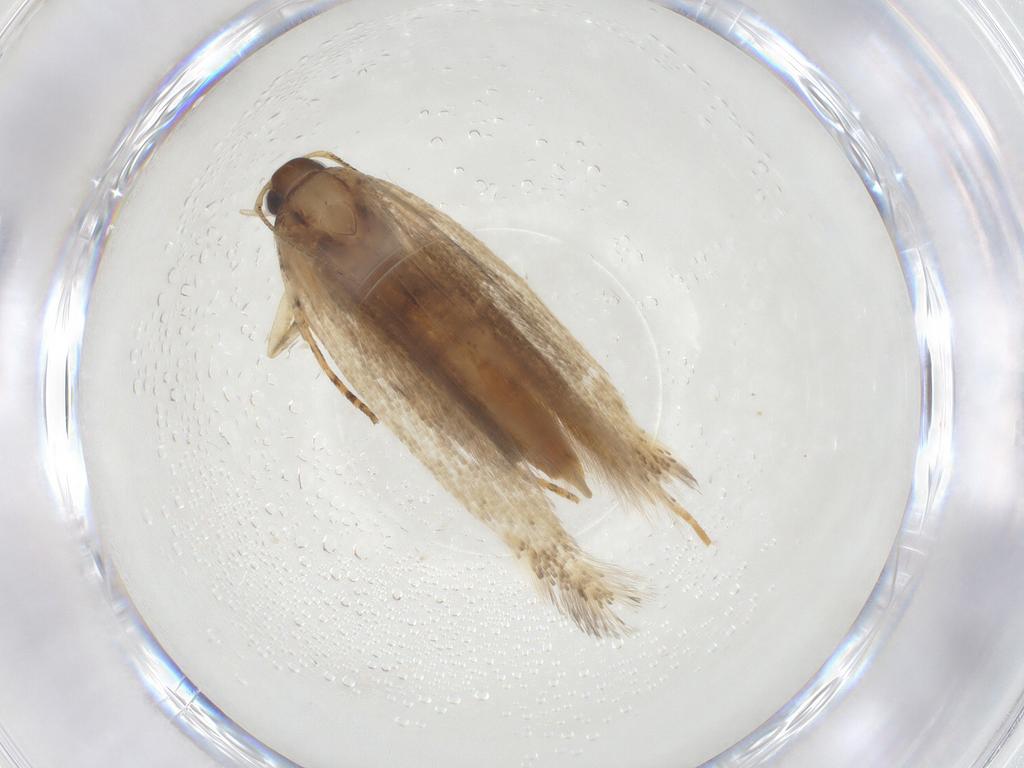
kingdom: Animalia
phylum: Arthropoda
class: Insecta
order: Lepidoptera
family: Gelechiidae
